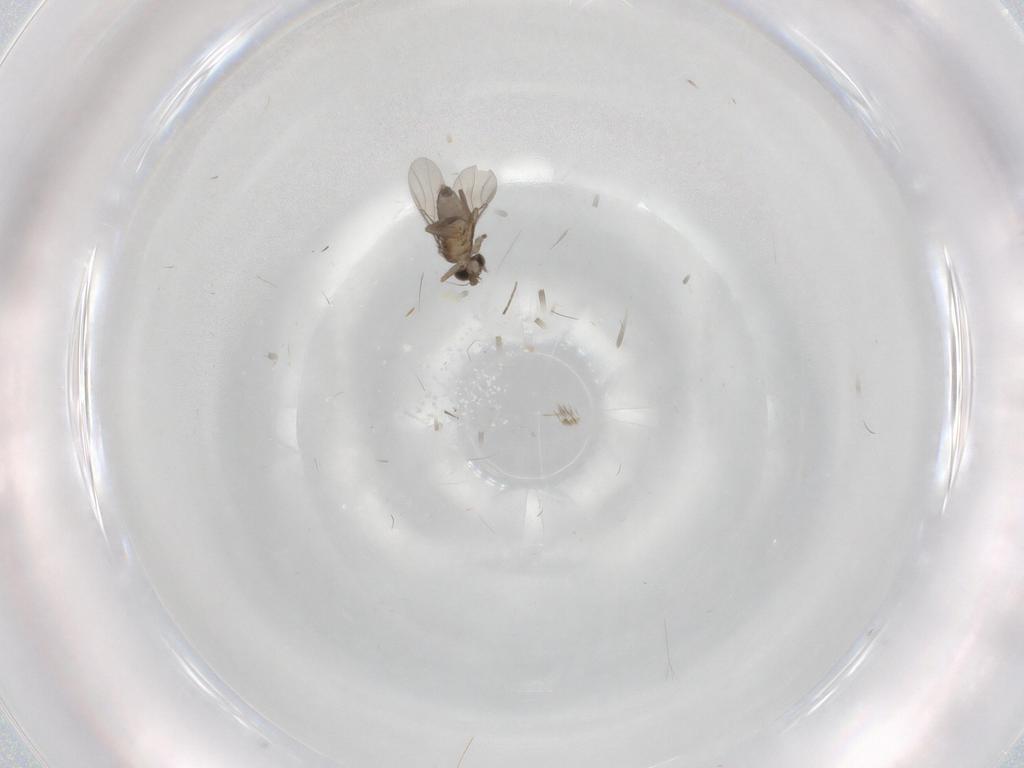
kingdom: Animalia
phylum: Arthropoda
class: Insecta
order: Diptera
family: Phoridae
